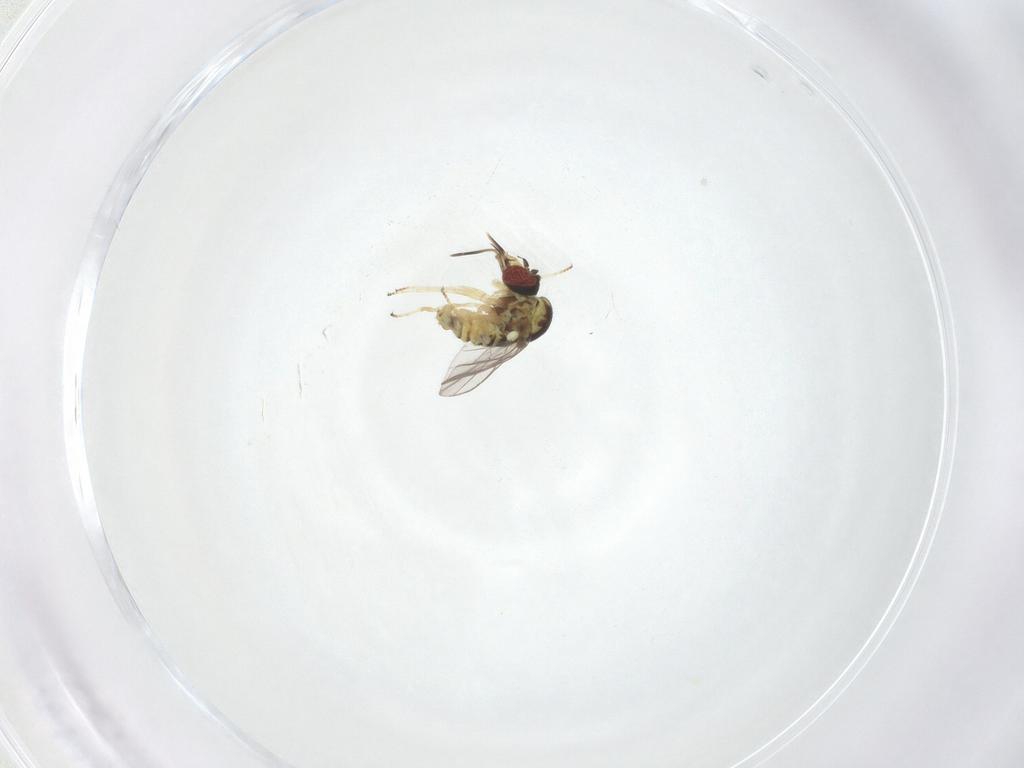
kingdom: Animalia
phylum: Arthropoda
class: Insecta
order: Diptera
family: Mythicomyiidae
